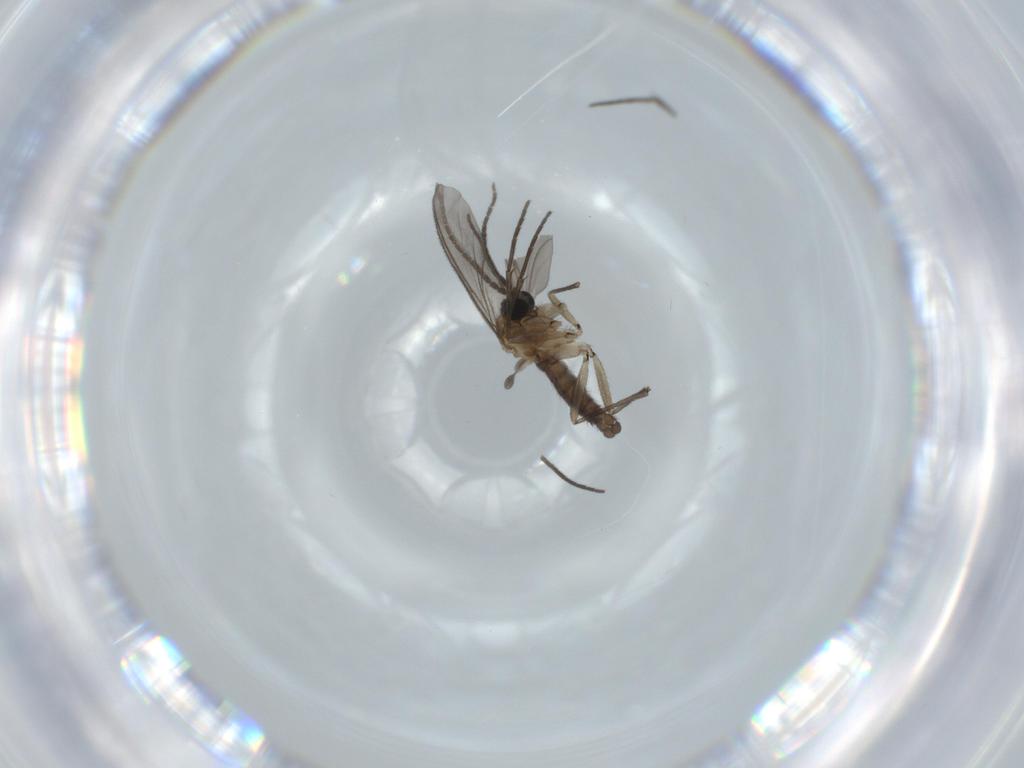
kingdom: Animalia
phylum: Arthropoda
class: Insecta
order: Diptera
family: Sciaridae
